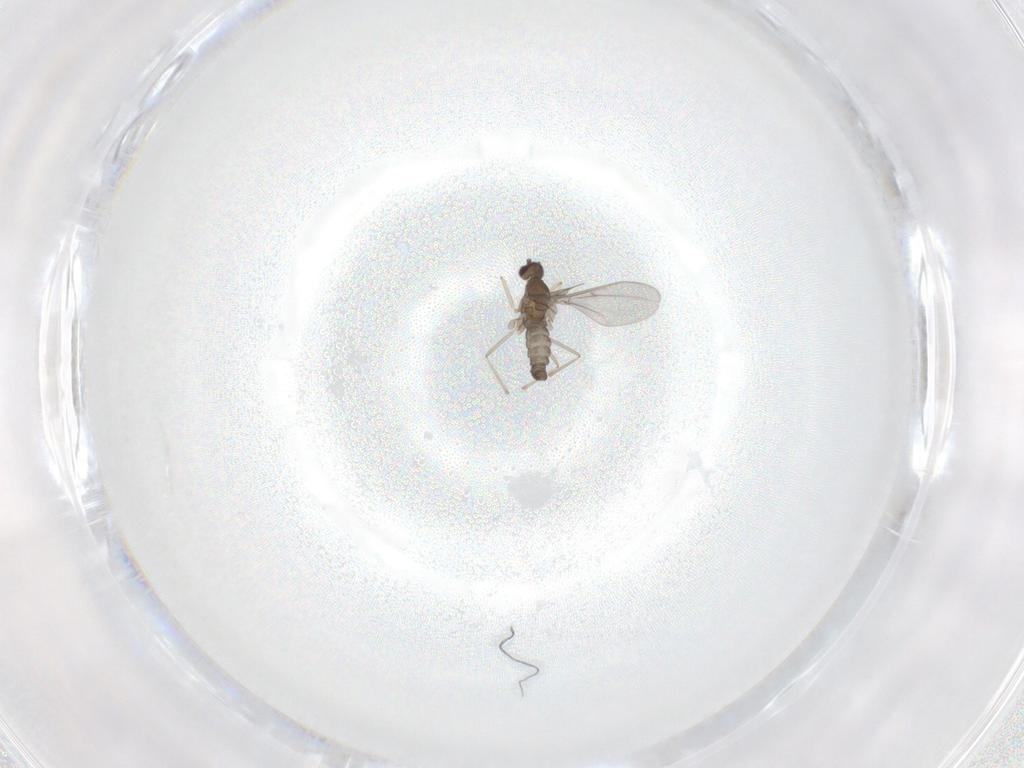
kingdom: Animalia
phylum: Arthropoda
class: Insecta
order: Diptera
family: Cecidomyiidae
